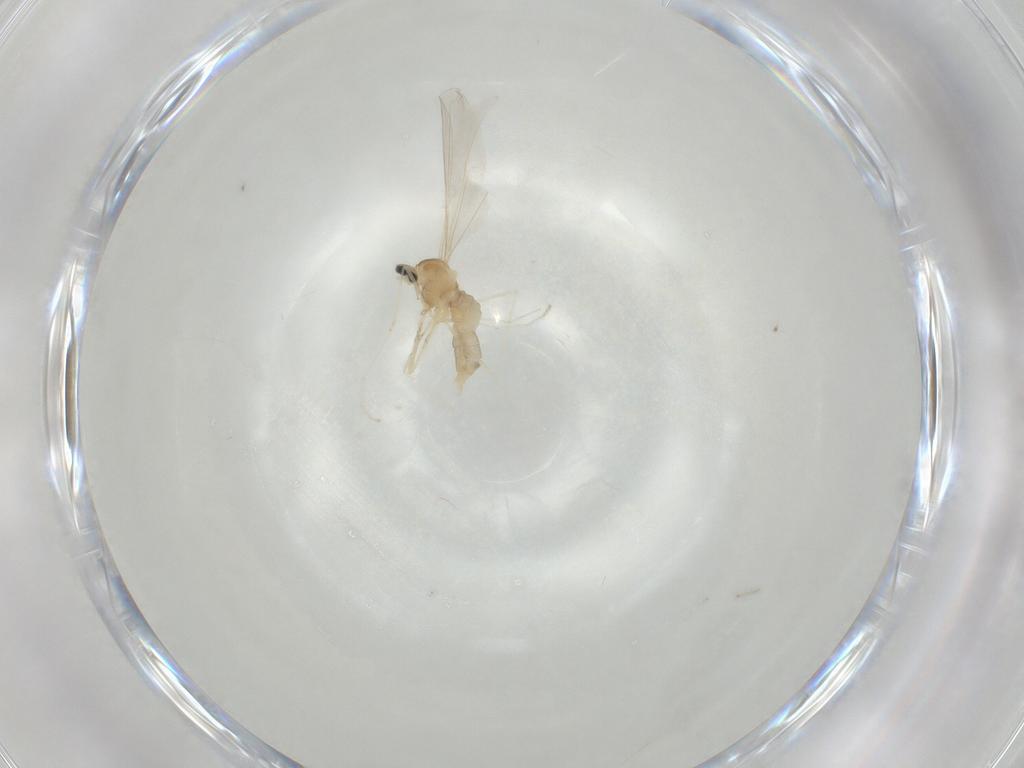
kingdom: Animalia
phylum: Arthropoda
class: Insecta
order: Diptera
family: Cecidomyiidae
